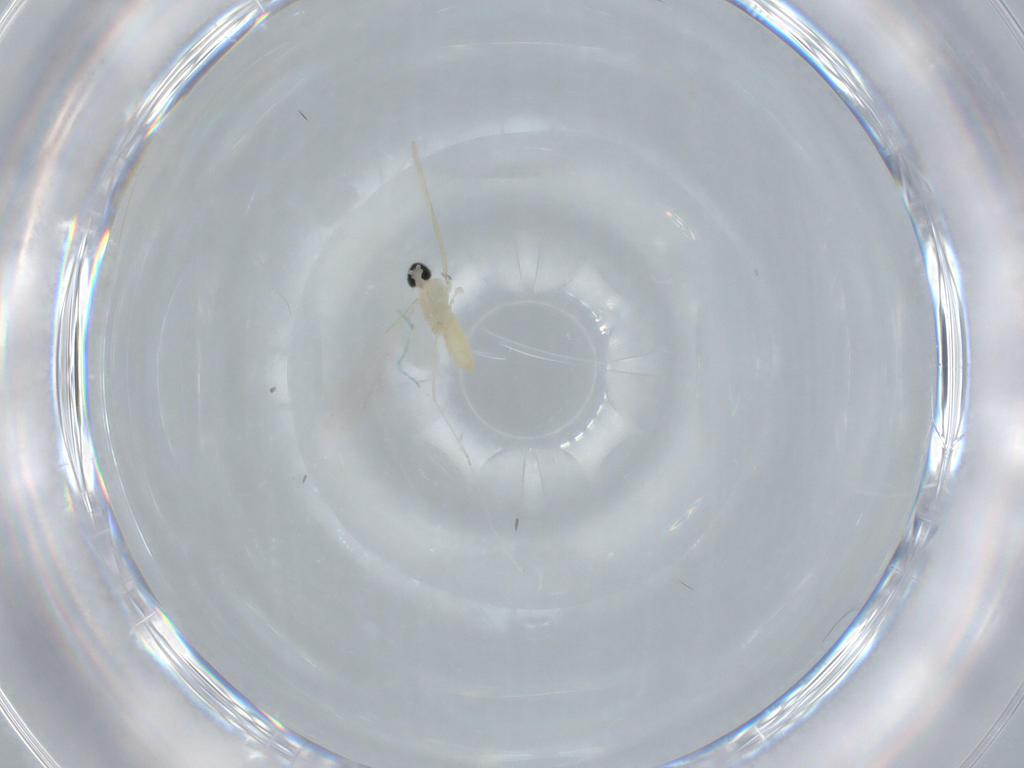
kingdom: Animalia
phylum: Arthropoda
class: Insecta
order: Diptera
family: Cecidomyiidae
